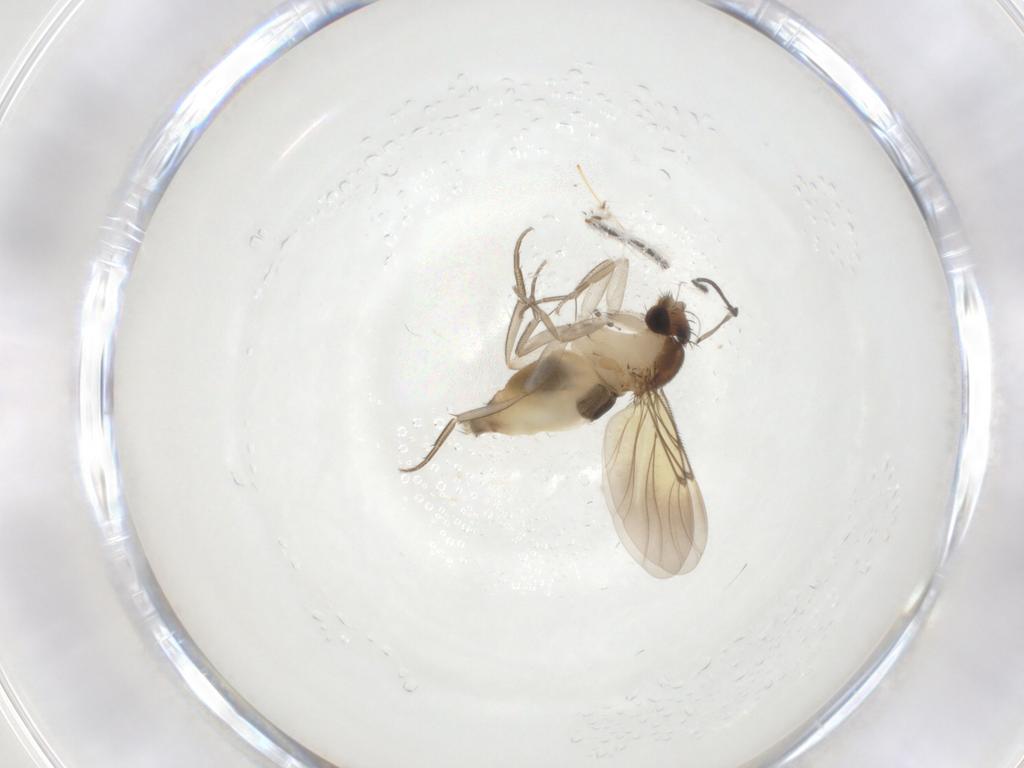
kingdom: Animalia
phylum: Arthropoda
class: Insecta
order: Diptera
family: Sciaridae
